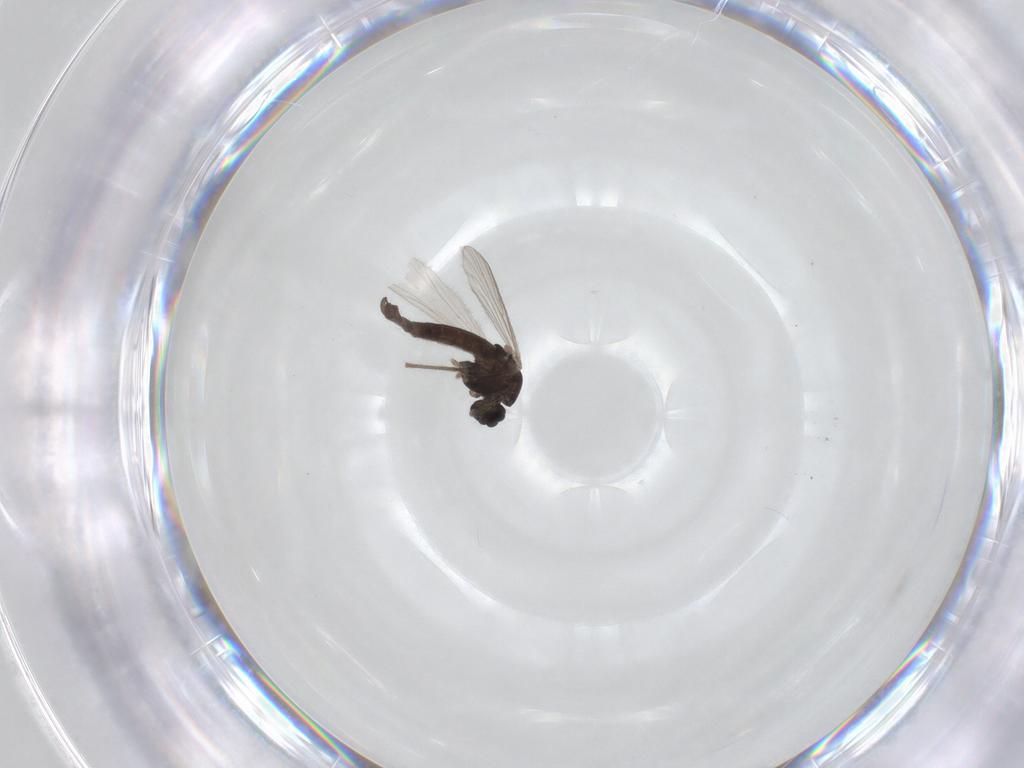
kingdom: Animalia
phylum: Arthropoda
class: Insecta
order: Diptera
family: Chironomidae
